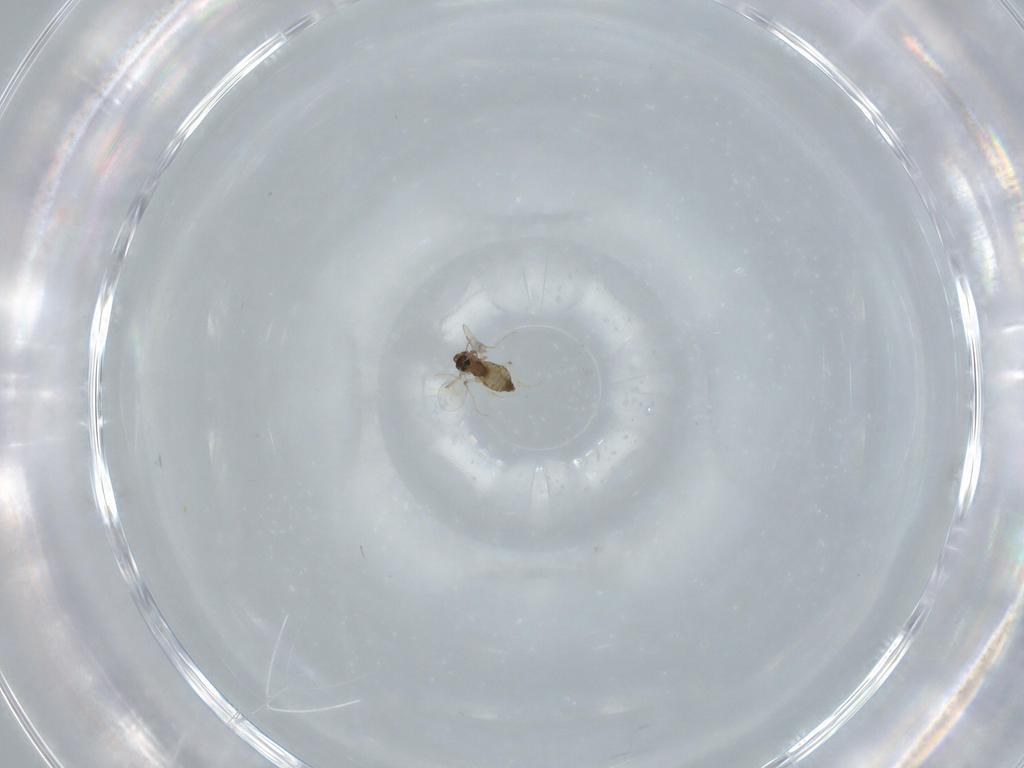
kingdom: Animalia
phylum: Arthropoda
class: Insecta
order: Diptera
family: Chironomidae
